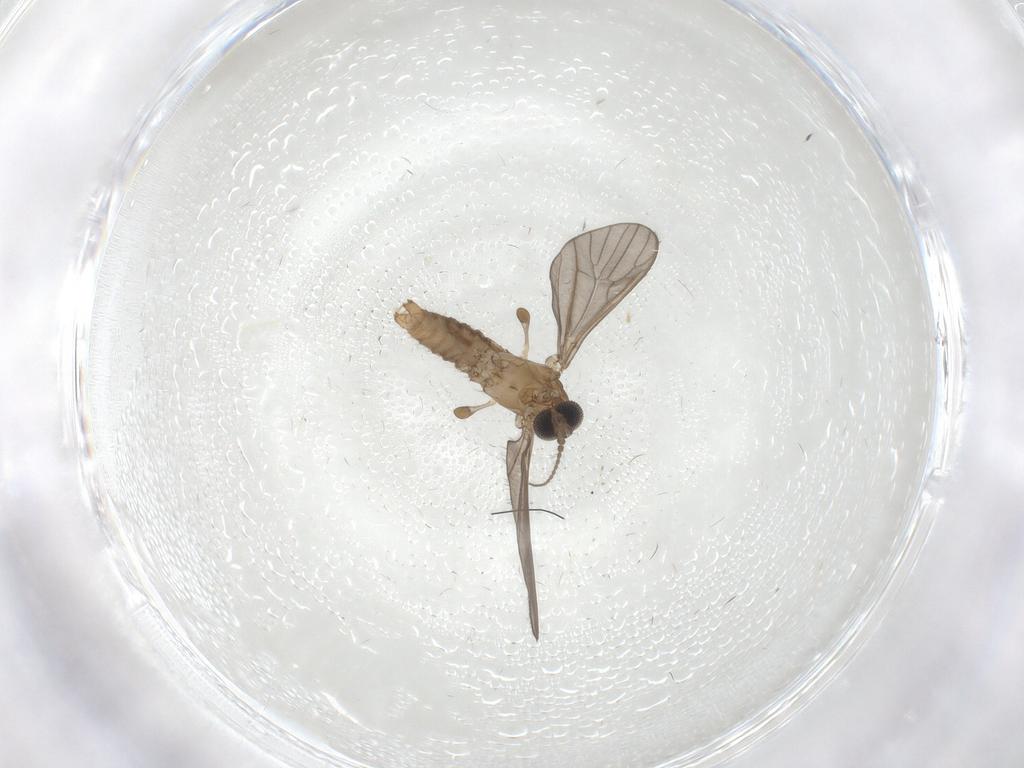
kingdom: Animalia
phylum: Arthropoda
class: Insecta
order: Diptera
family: Limoniidae
